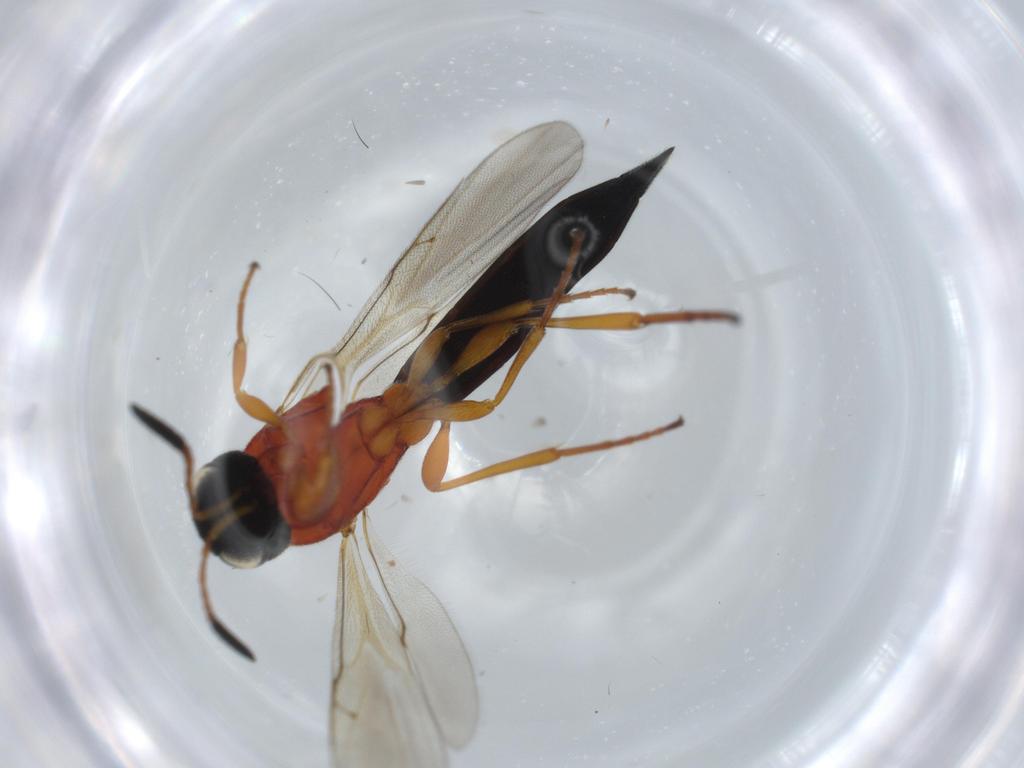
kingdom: Animalia
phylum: Arthropoda
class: Insecta
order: Hymenoptera
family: Scelionidae
